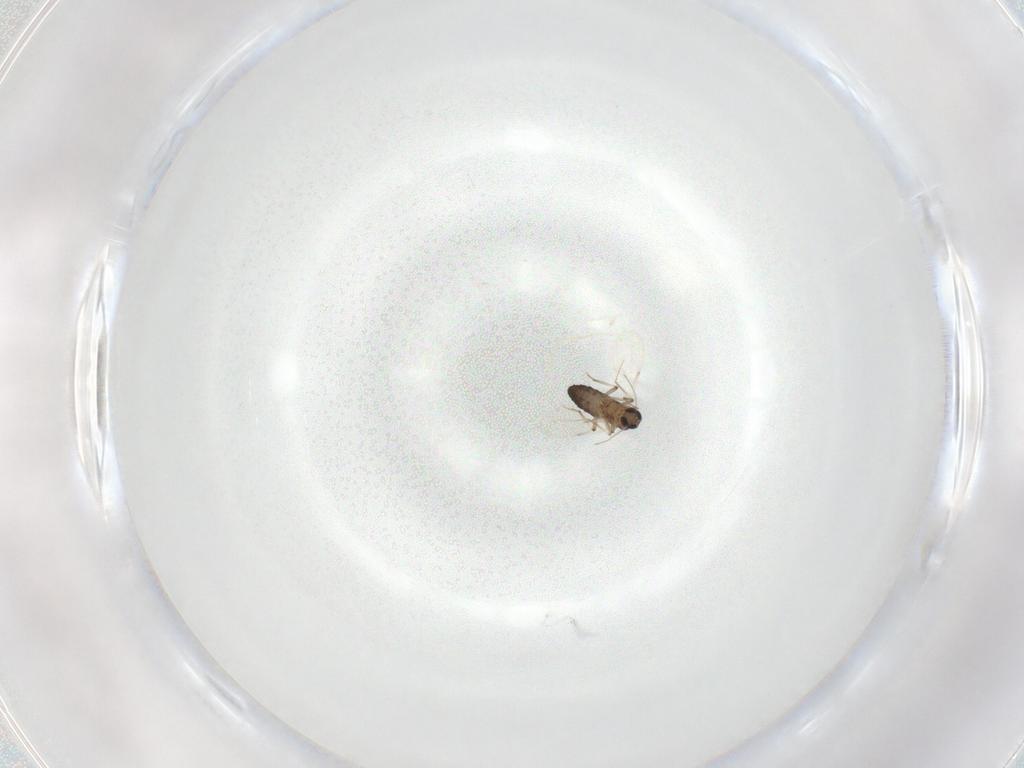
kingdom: Animalia
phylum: Arthropoda
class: Insecta
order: Diptera
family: Ceratopogonidae
